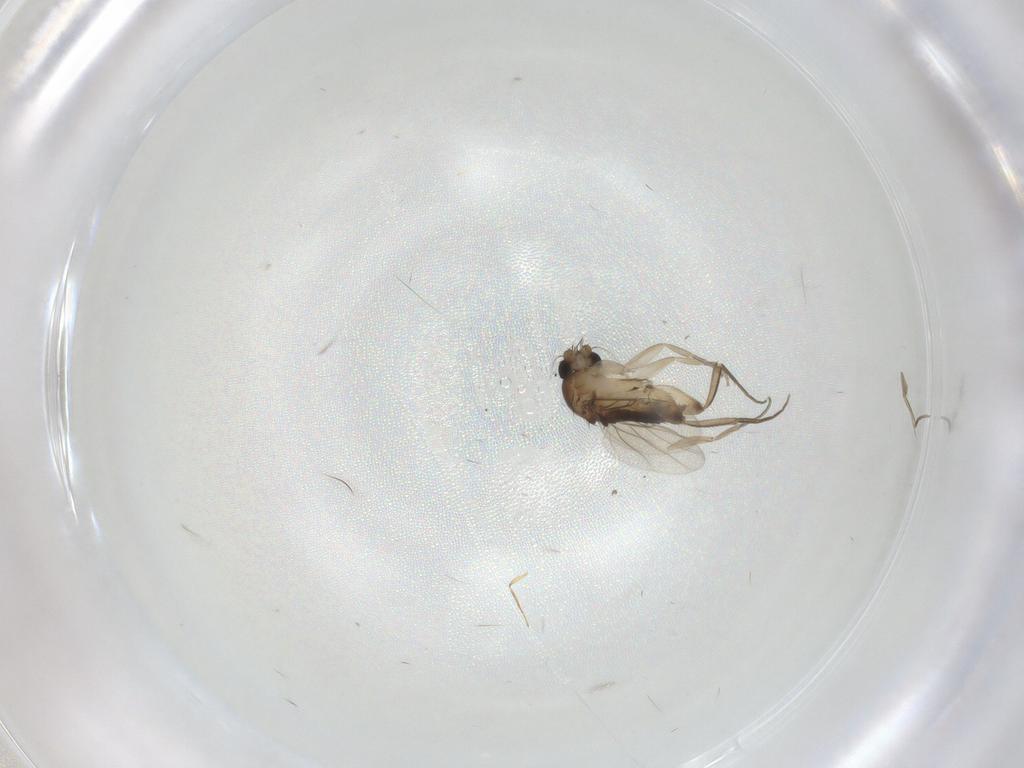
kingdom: Animalia
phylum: Arthropoda
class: Insecta
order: Diptera
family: Phoridae
